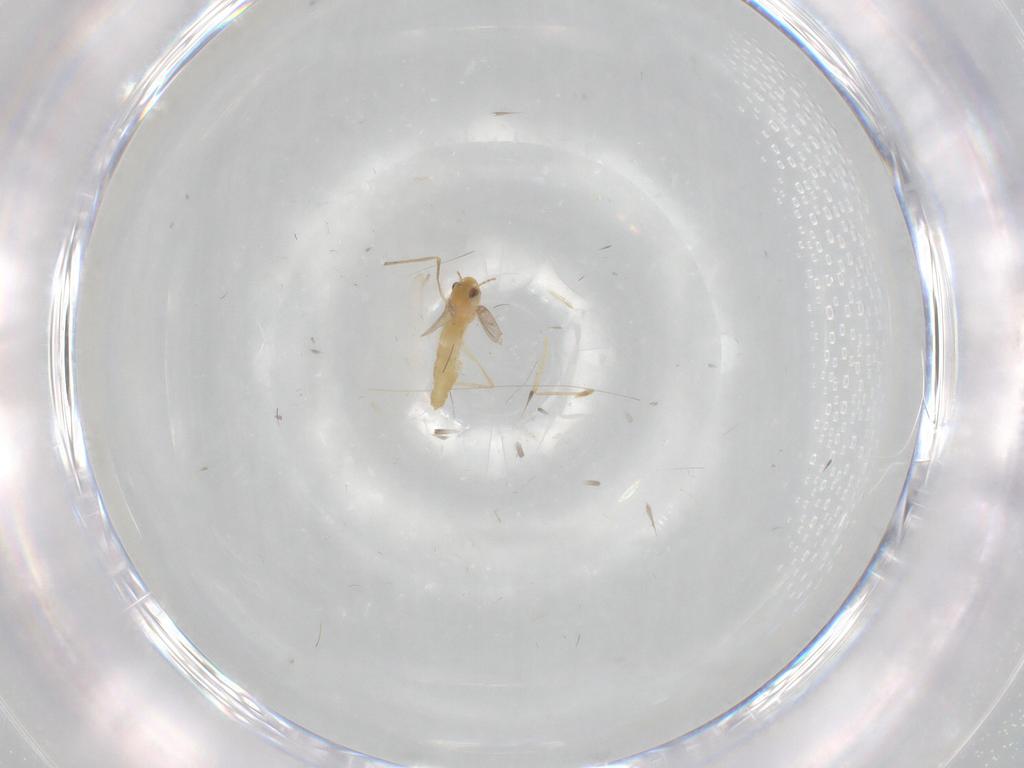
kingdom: Animalia
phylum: Arthropoda
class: Insecta
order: Diptera
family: Chironomidae
